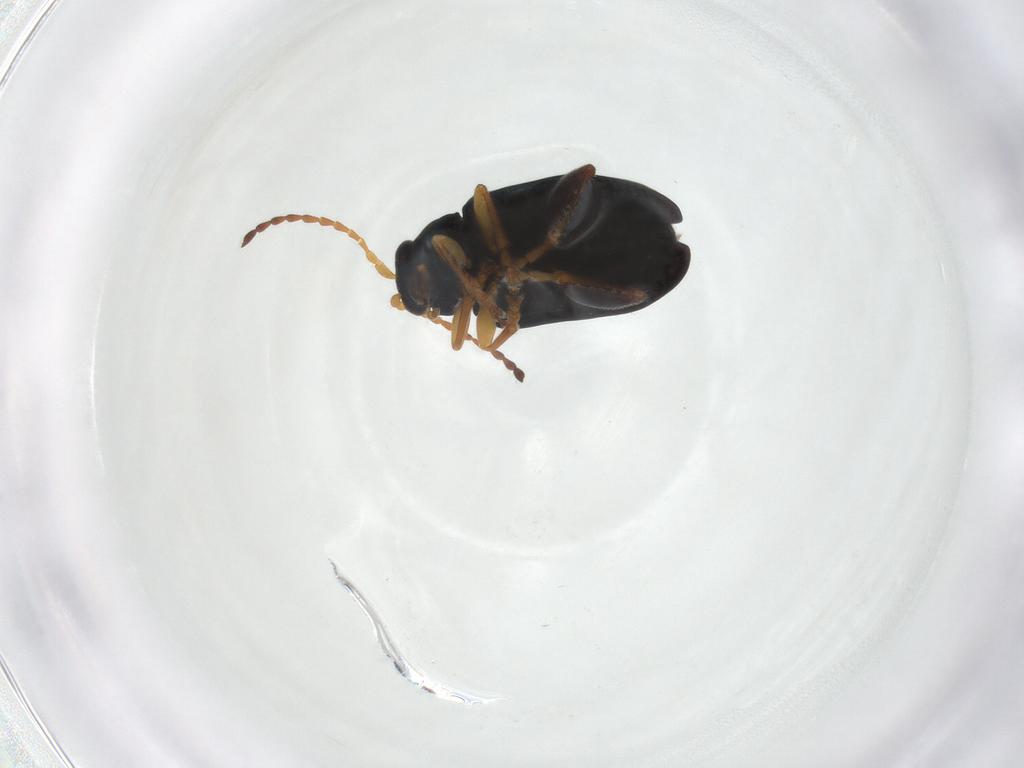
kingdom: Animalia
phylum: Arthropoda
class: Insecta
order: Coleoptera
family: Chrysomelidae
